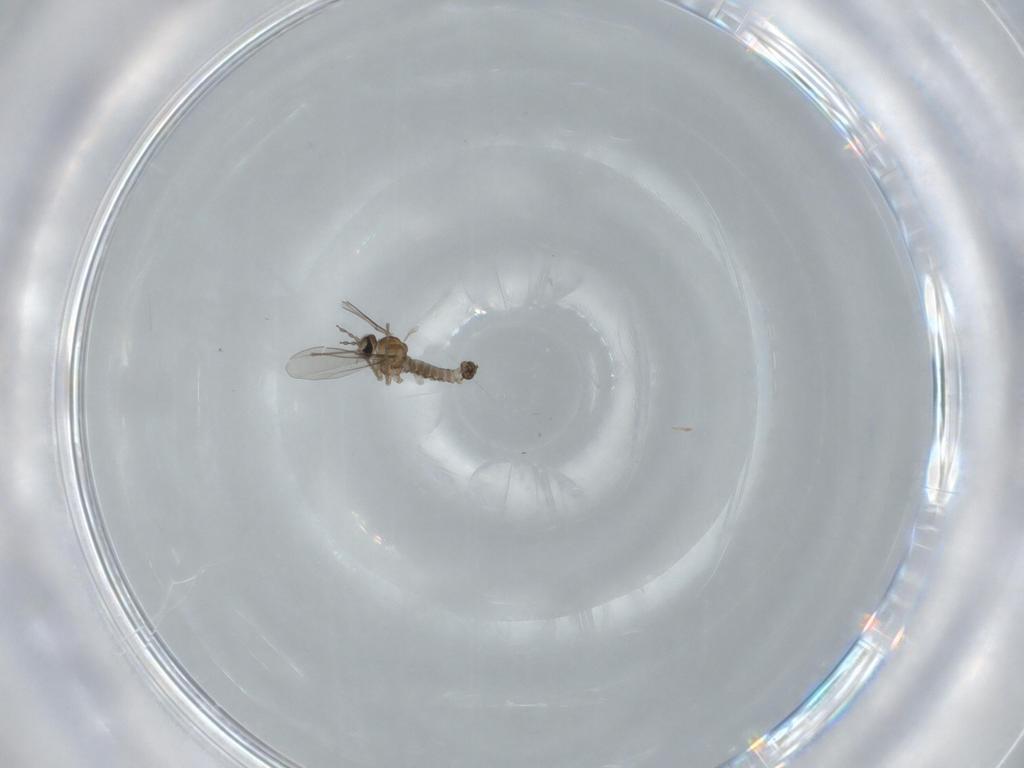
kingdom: Animalia
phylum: Arthropoda
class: Insecta
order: Diptera
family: Cecidomyiidae
